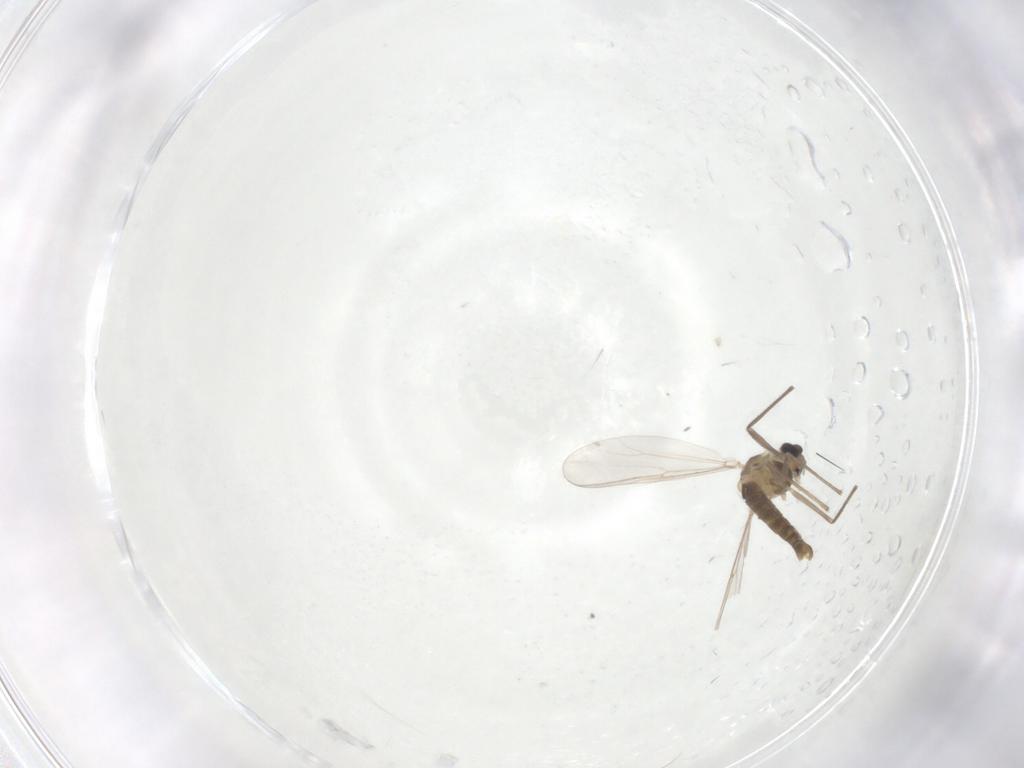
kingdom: Animalia
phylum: Arthropoda
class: Insecta
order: Diptera
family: Chironomidae
